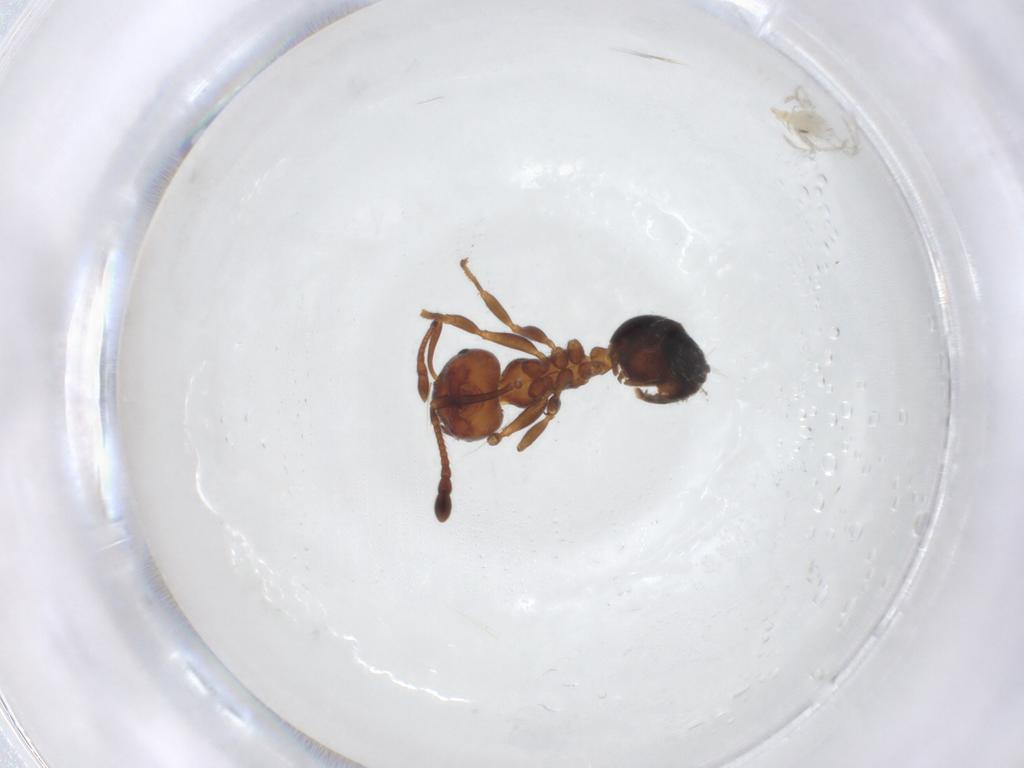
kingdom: Animalia
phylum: Arthropoda
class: Insecta
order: Hymenoptera
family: Formicidae
